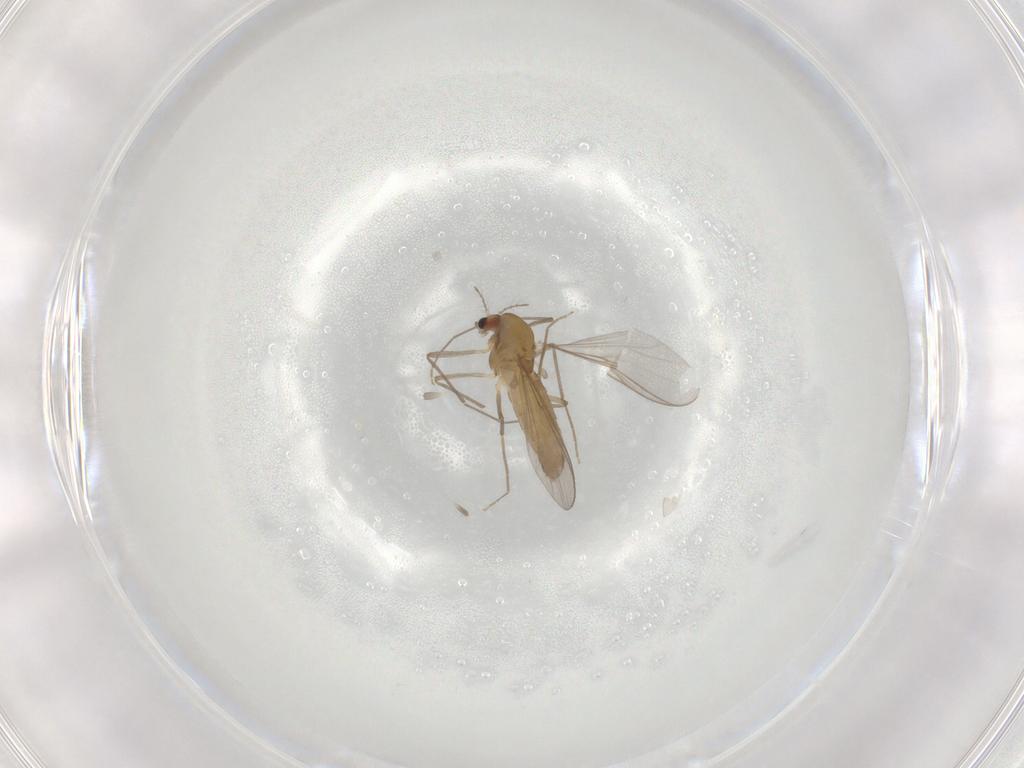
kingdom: Animalia
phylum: Arthropoda
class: Insecta
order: Diptera
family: Chironomidae
